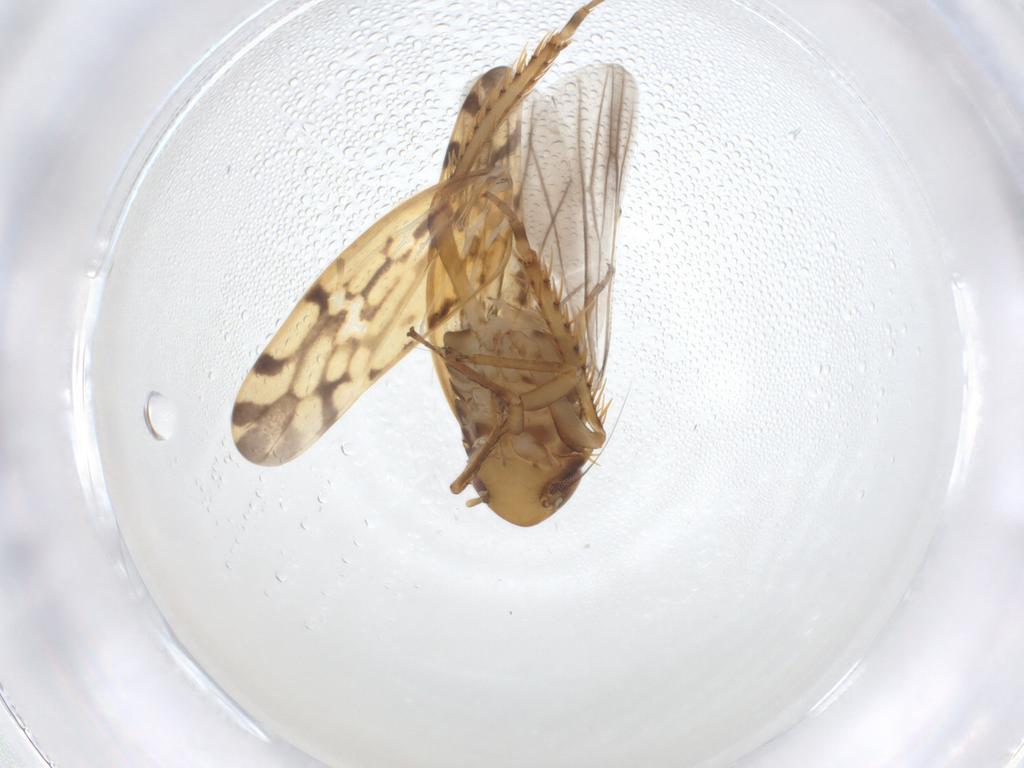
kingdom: Animalia
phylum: Arthropoda
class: Insecta
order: Hemiptera
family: Cicadellidae
